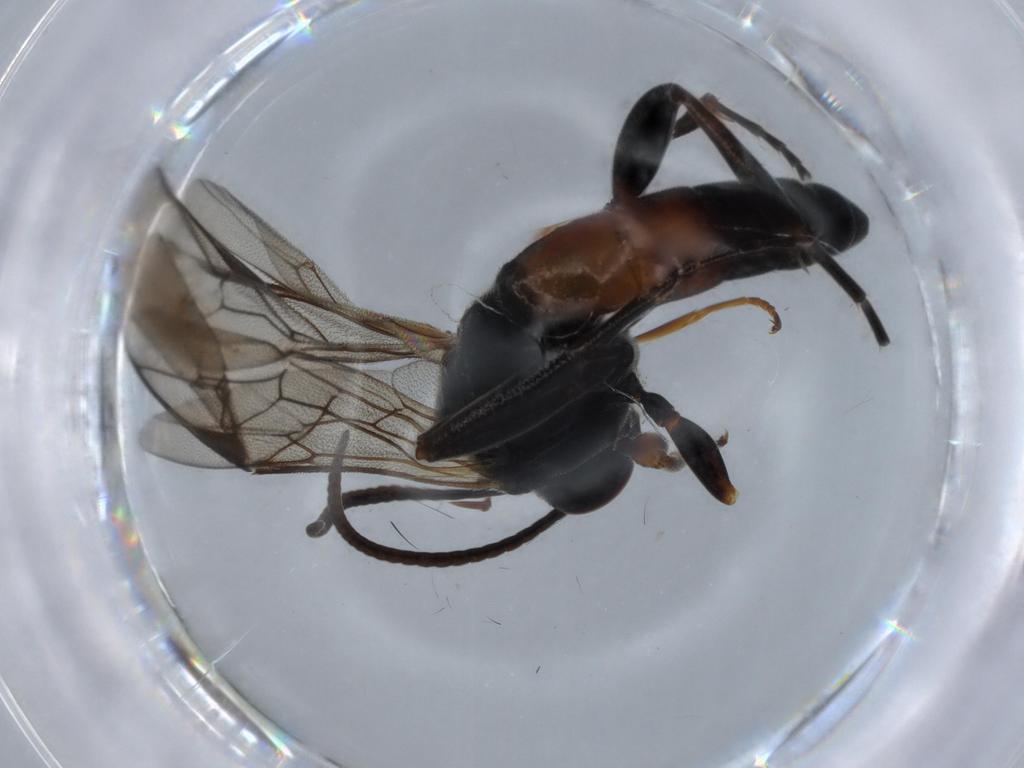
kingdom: Animalia
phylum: Arthropoda
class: Insecta
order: Hymenoptera
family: Ichneumonidae
